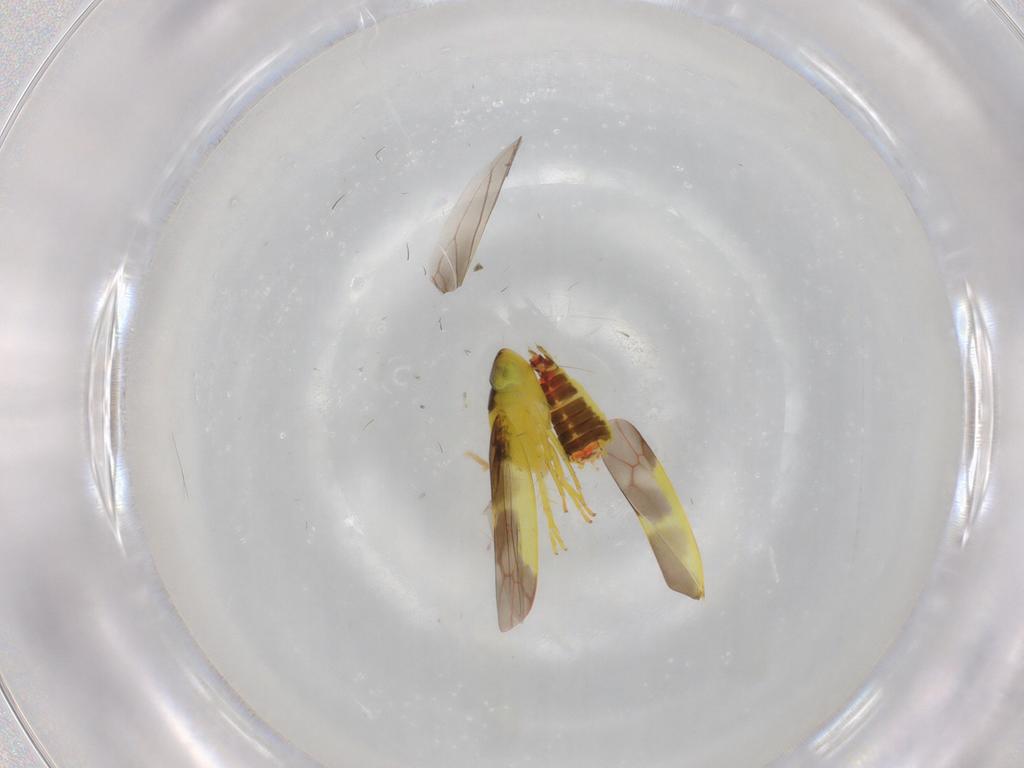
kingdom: Animalia
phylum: Arthropoda
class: Insecta
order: Hemiptera
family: Cicadellidae
